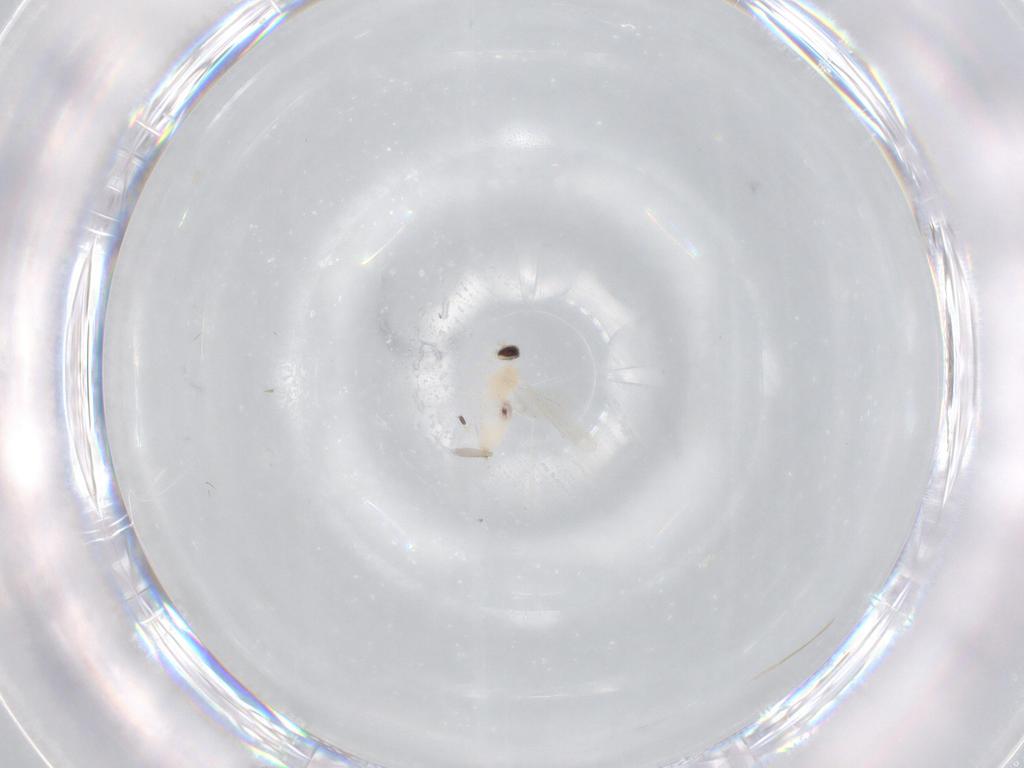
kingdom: Animalia
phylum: Arthropoda
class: Insecta
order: Diptera
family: Cecidomyiidae
